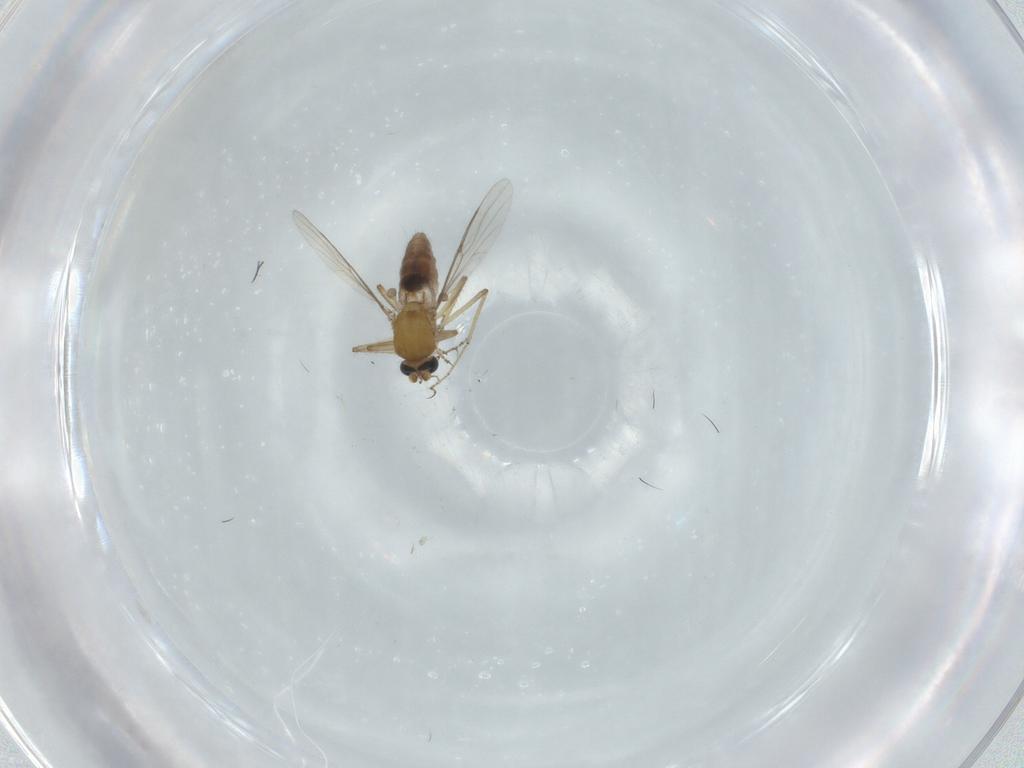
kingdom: Animalia
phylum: Arthropoda
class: Insecta
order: Diptera
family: Cecidomyiidae
